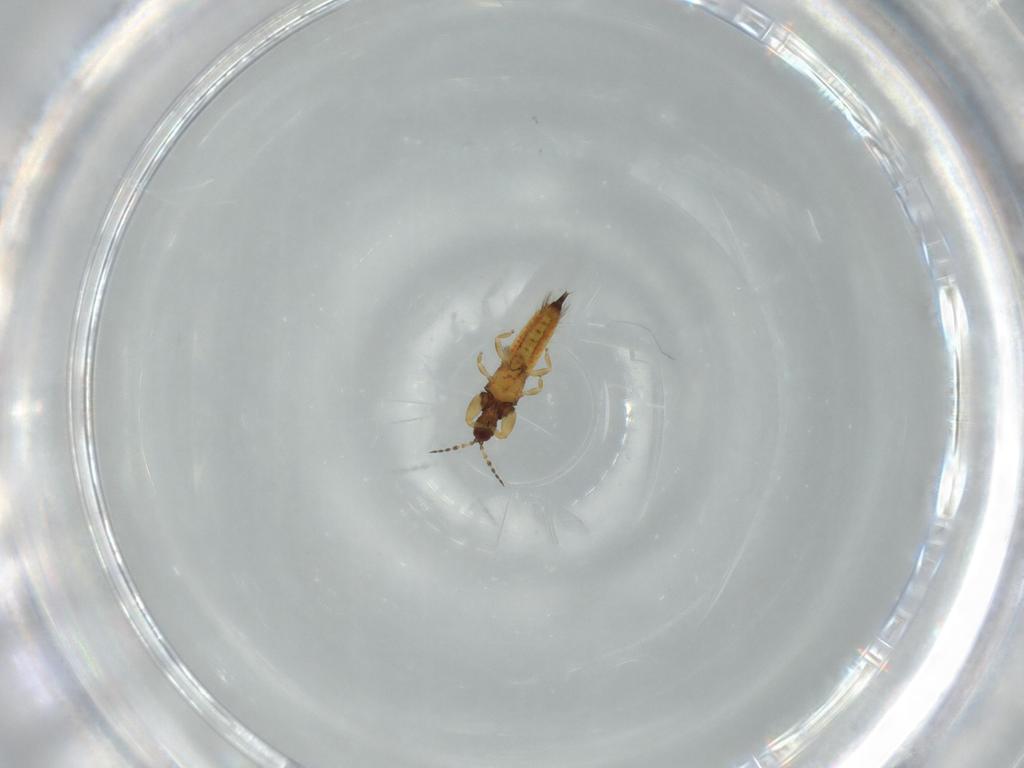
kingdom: Animalia
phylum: Arthropoda
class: Insecta
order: Thysanoptera
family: Phlaeothripidae
